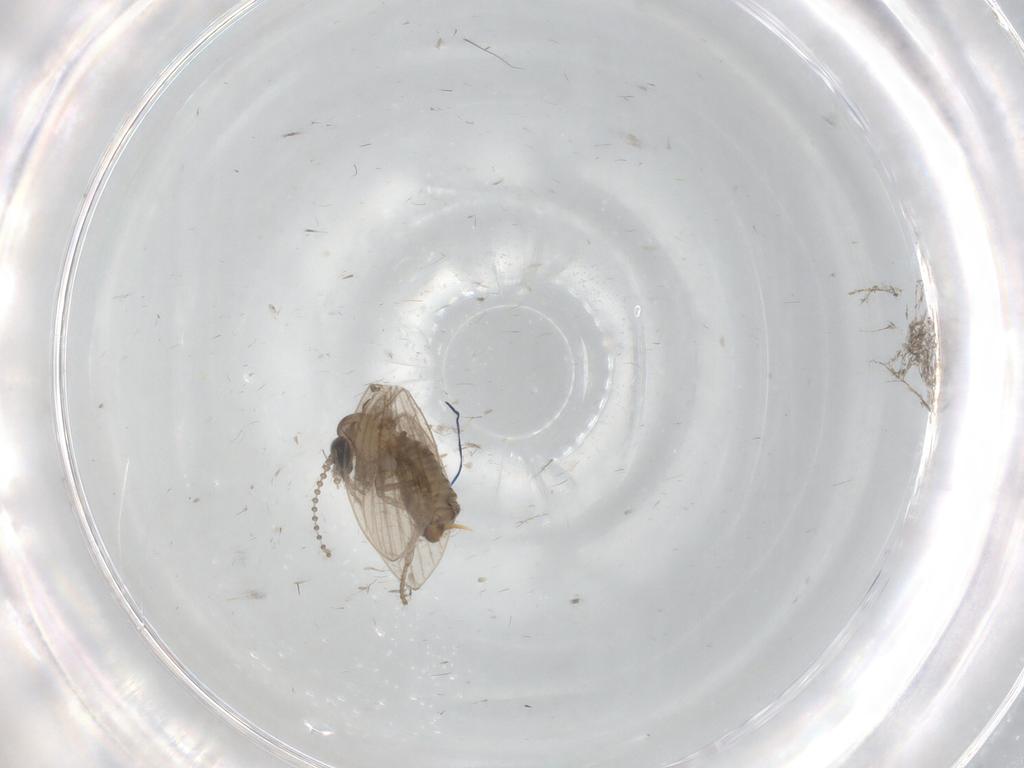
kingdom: Animalia
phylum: Arthropoda
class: Insecta
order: Diptera
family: Psychodidae
